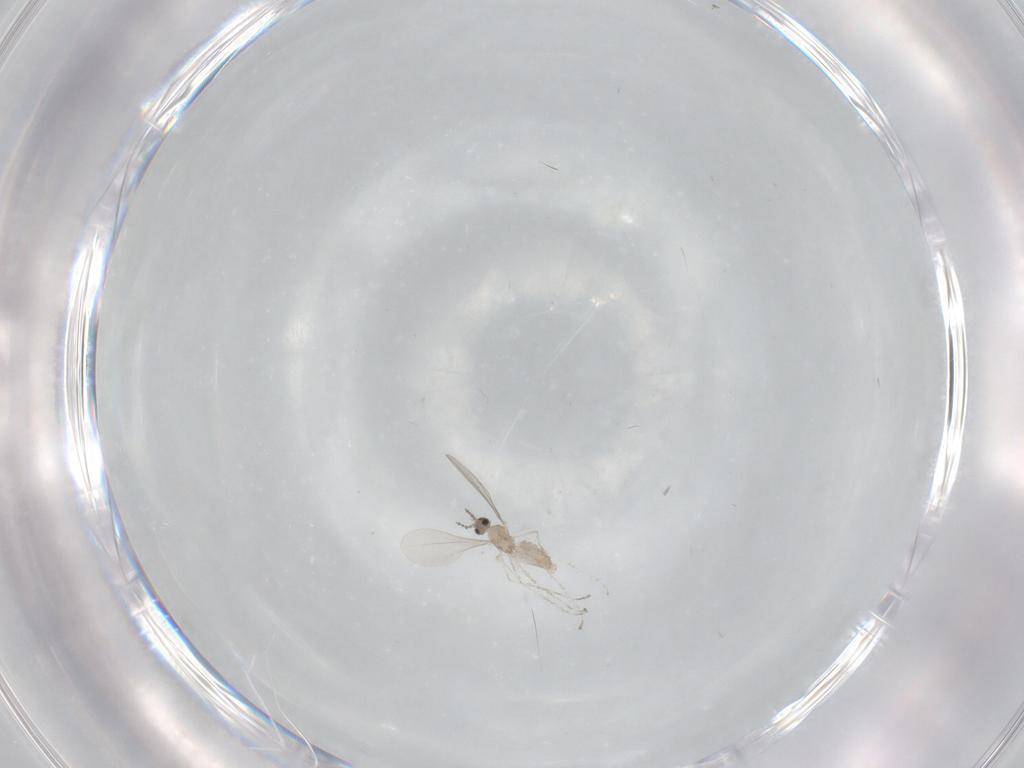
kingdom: Animalia
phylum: Arthropoda
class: Insecta
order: Diptera
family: Cecidomyiidae
